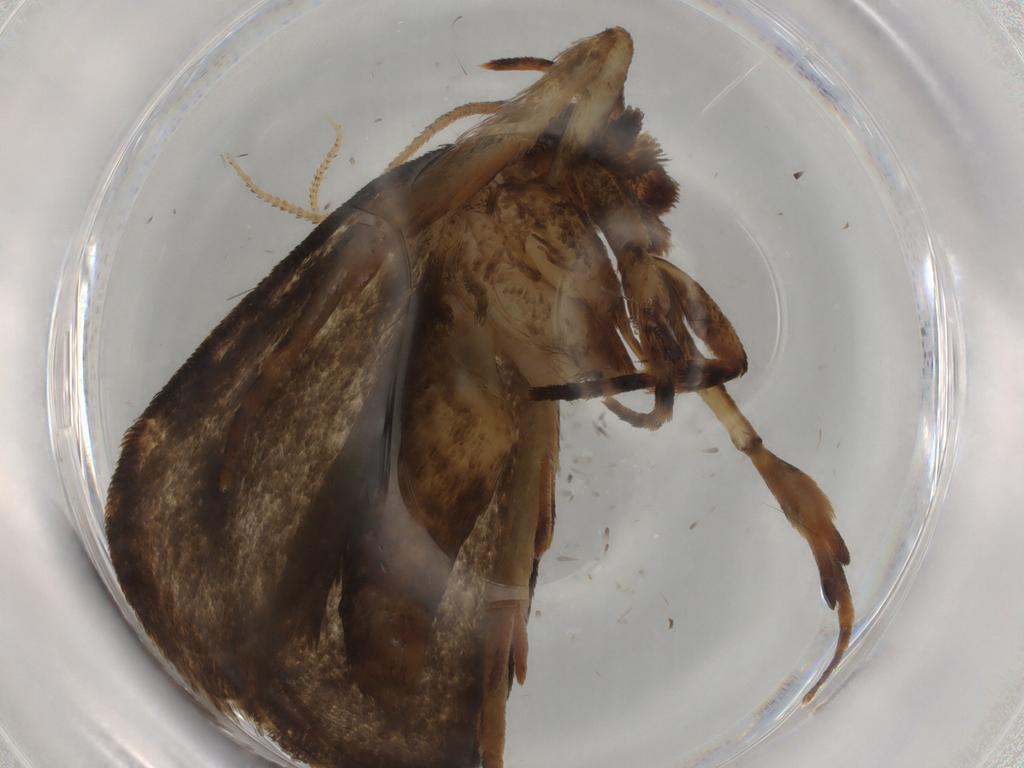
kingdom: Animalia
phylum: Arthropoda
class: Insecta
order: Lepidoptera
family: Tineidae
